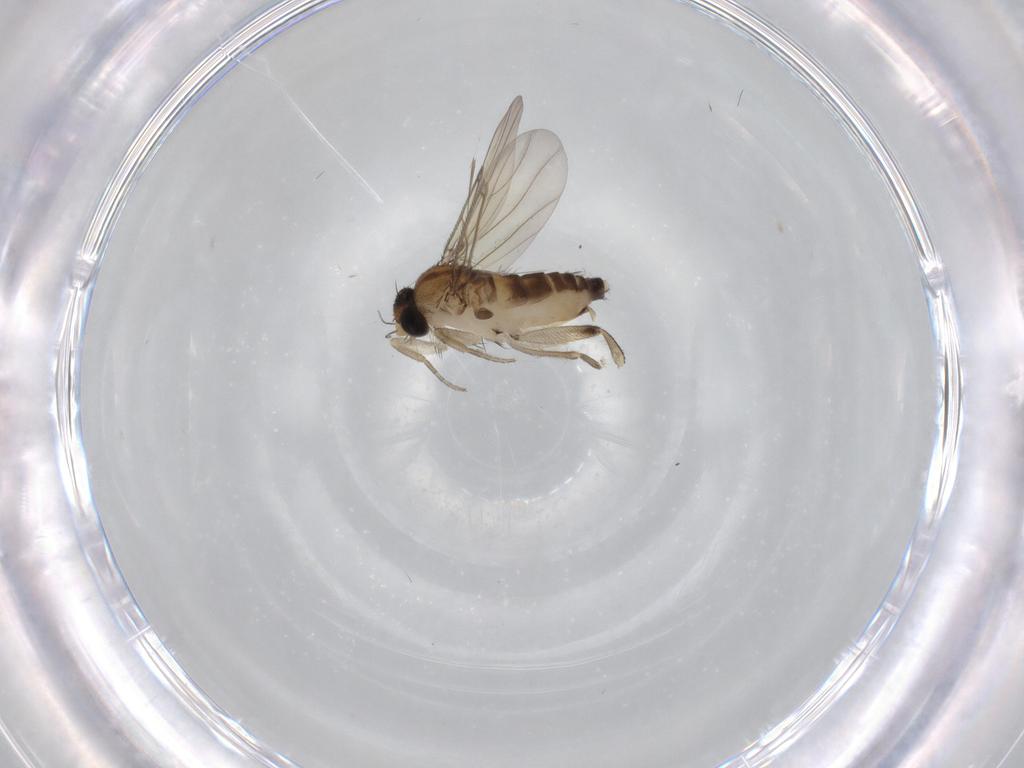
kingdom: Animalia
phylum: Arthropoda
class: Insecta
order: Diptera
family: Phoridae
